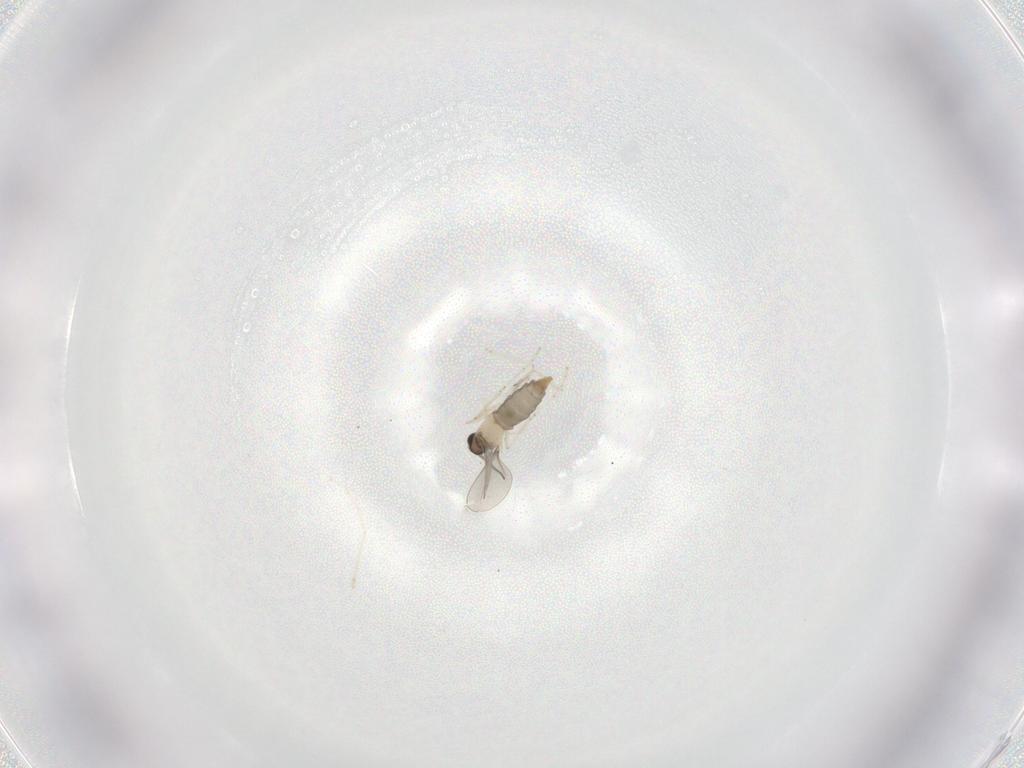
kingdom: Animalia
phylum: Arthropoda
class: Insecta
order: Diptera
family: Cecidomyiidae
